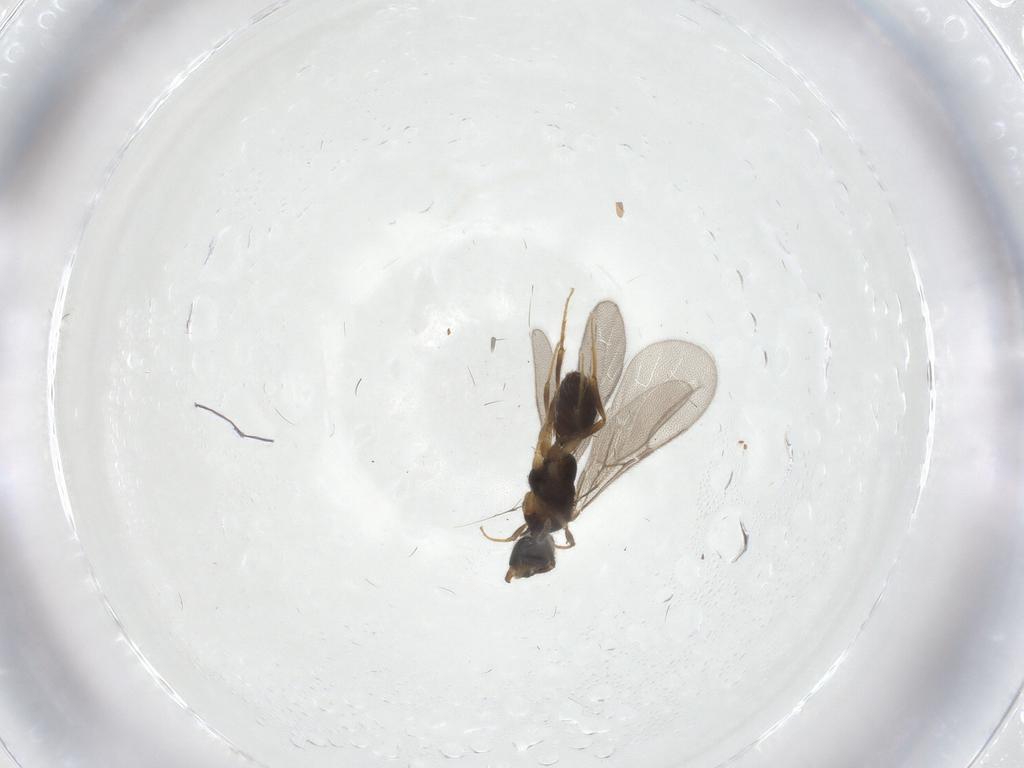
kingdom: Animalia
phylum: Arthropoda
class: Insecta
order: Hymenoptera
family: Bethylidae
